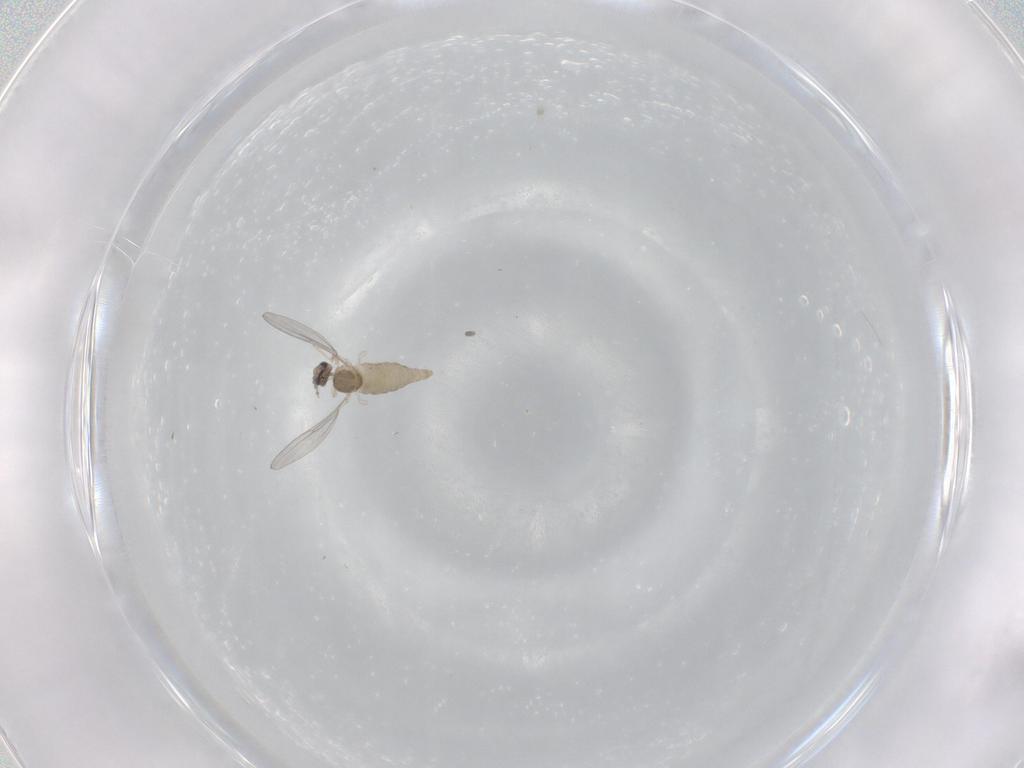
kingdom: Animalia
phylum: Arthropoda
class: Insecta
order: Diptera
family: Cecidomyiidae
